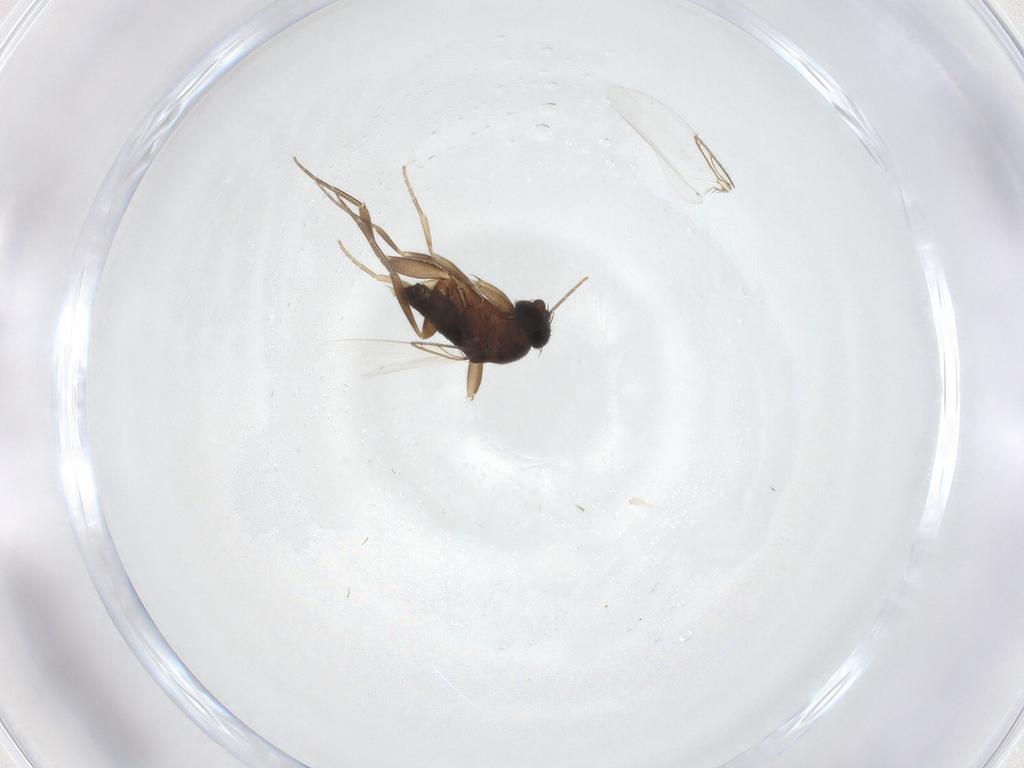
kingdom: Animalia
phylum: Arthropoda
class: Insecta
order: Diptera
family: Phoridae
